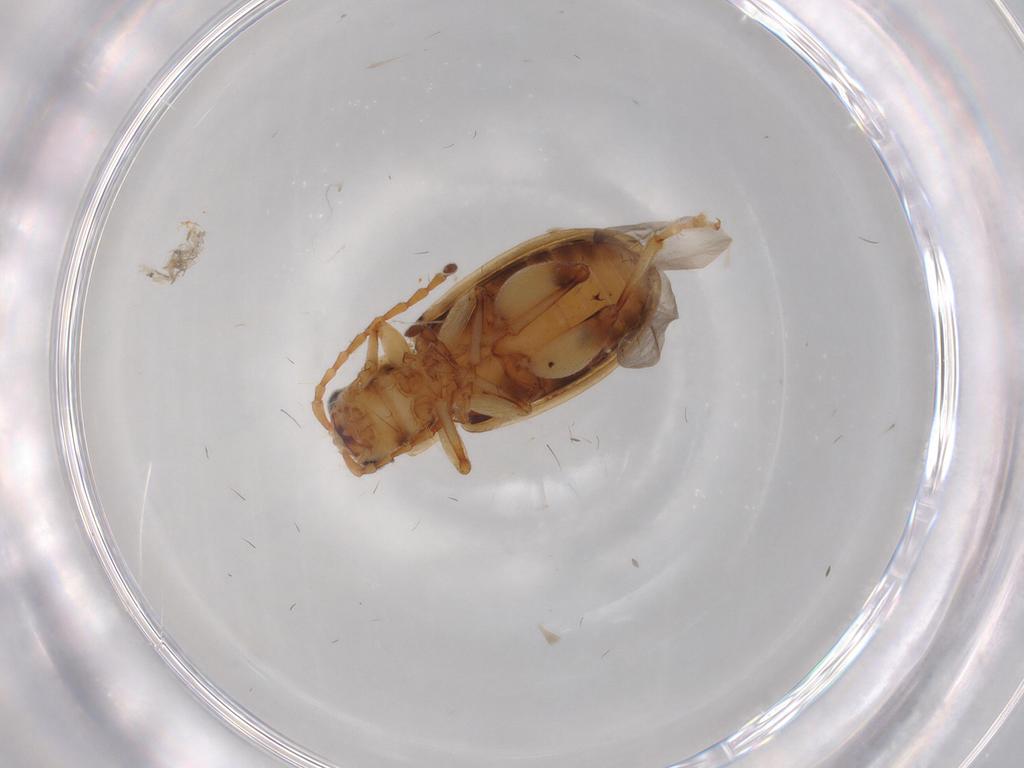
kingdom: Animalia
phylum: Arthropoda
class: Insecta
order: Coleoptera
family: Chrysomelidae
